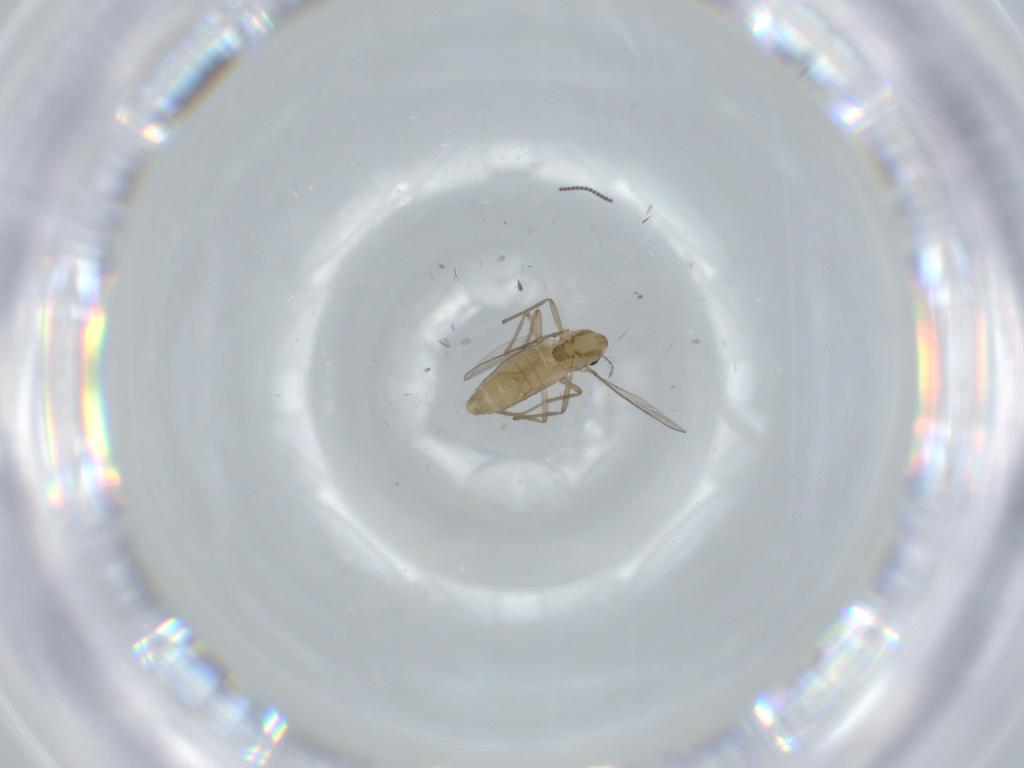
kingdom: Animalia
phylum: Arthropoda
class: Insecta
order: Diptera
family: Chironomidae
